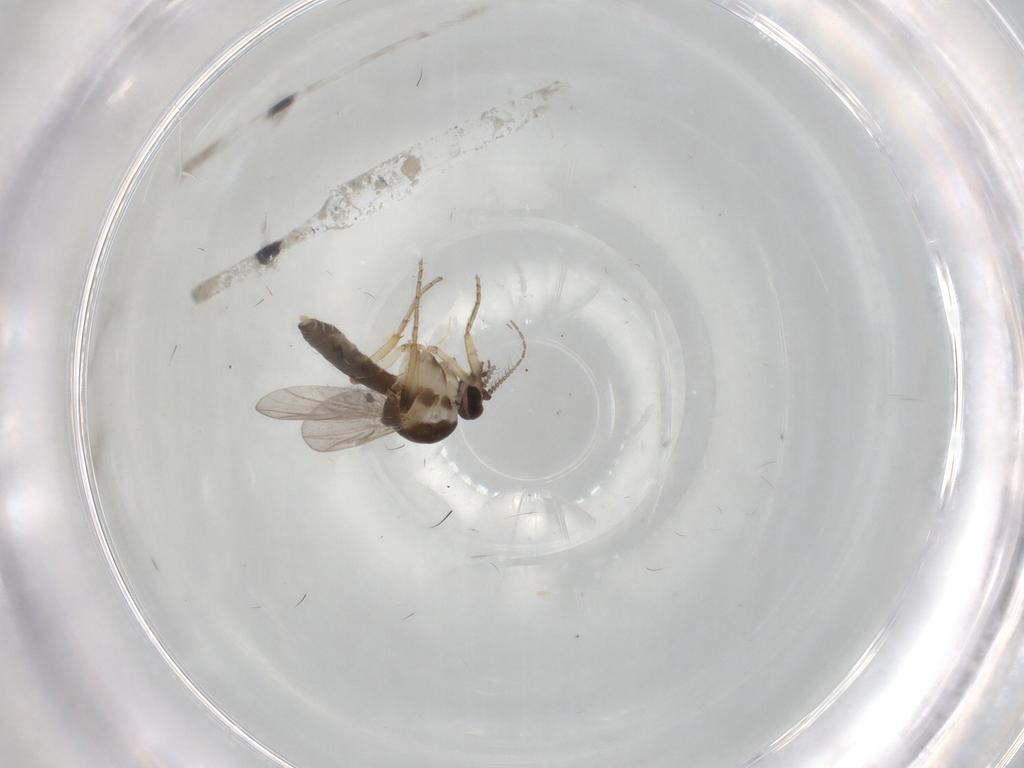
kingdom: Animalia
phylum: Arthropoda
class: Insecta
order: Diptera
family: Ceratopogonidae
